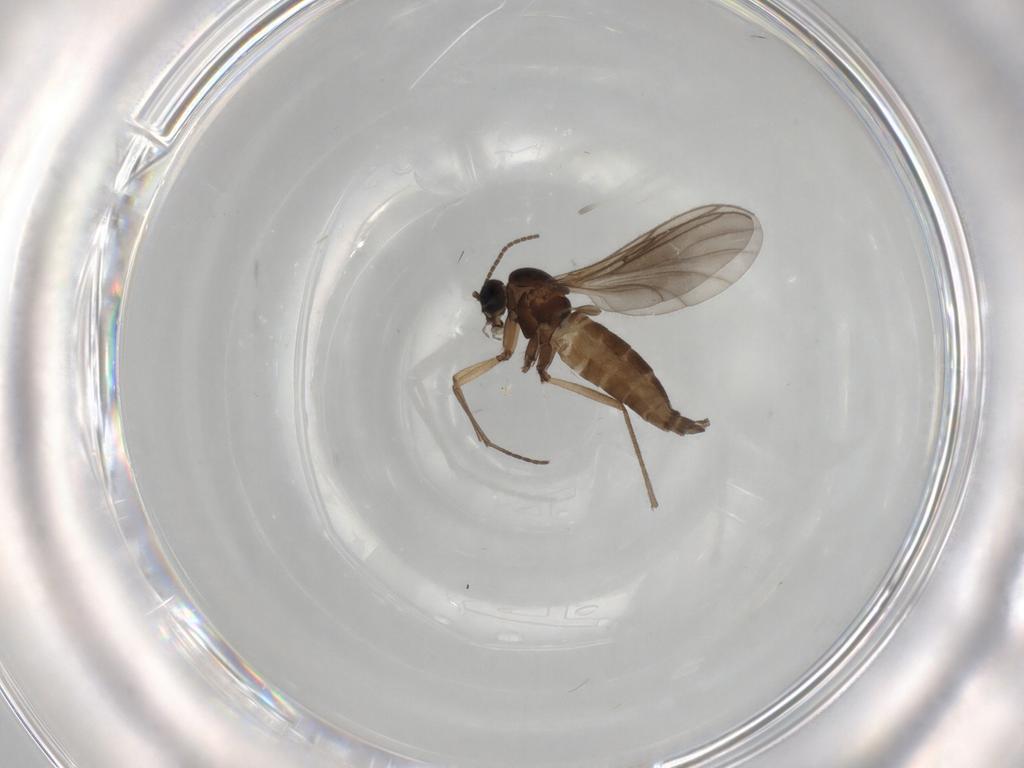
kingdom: Animalia
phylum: Arthropoda
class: Insecta
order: Diptera
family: Sciaridae
